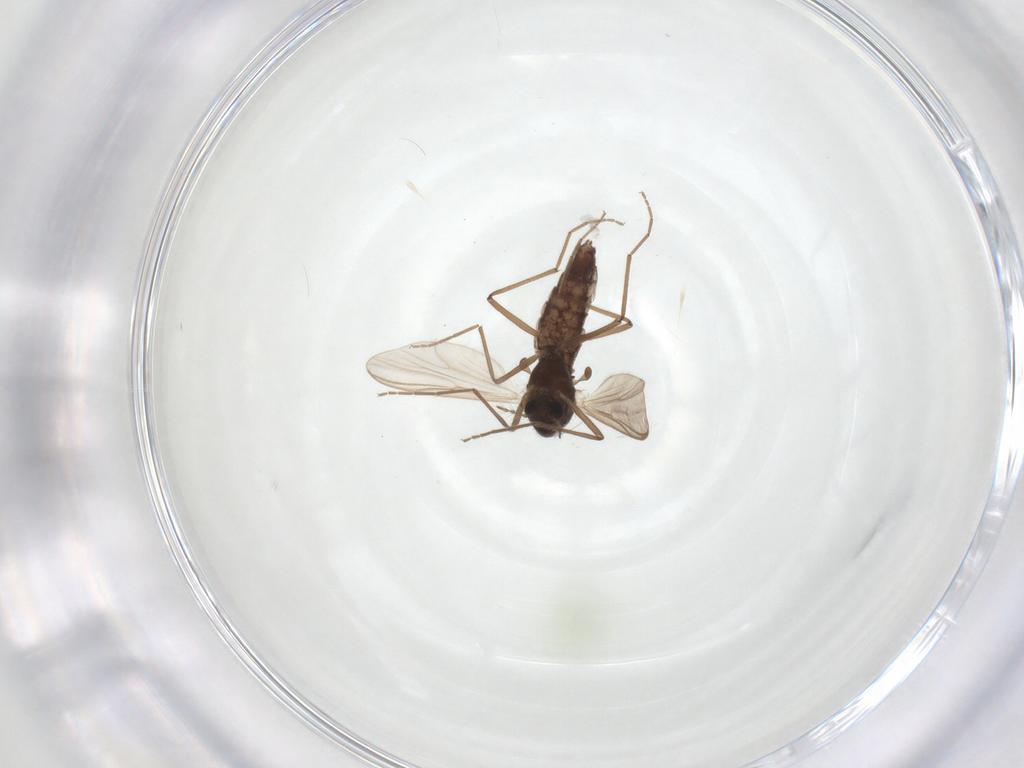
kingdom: Animalia
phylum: Arthropoda
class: Insecta
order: Diptera
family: Chironomidae
